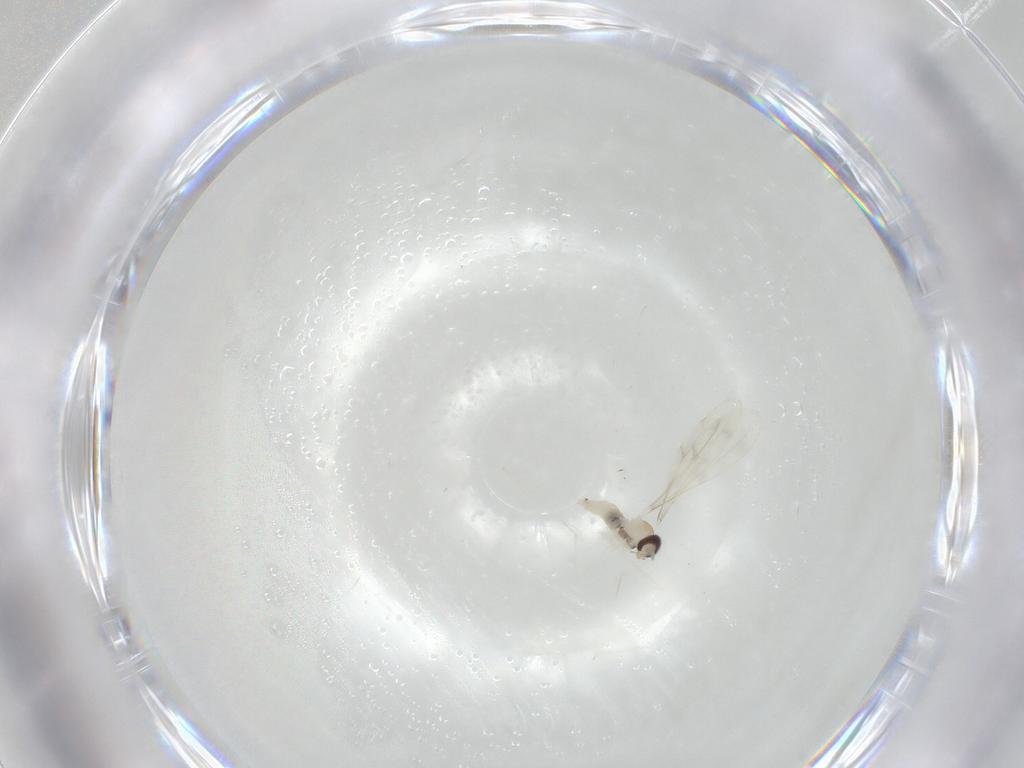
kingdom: Animalia
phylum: Arthropoda
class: Insecta
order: Diptera
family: Cecidomyiidae
